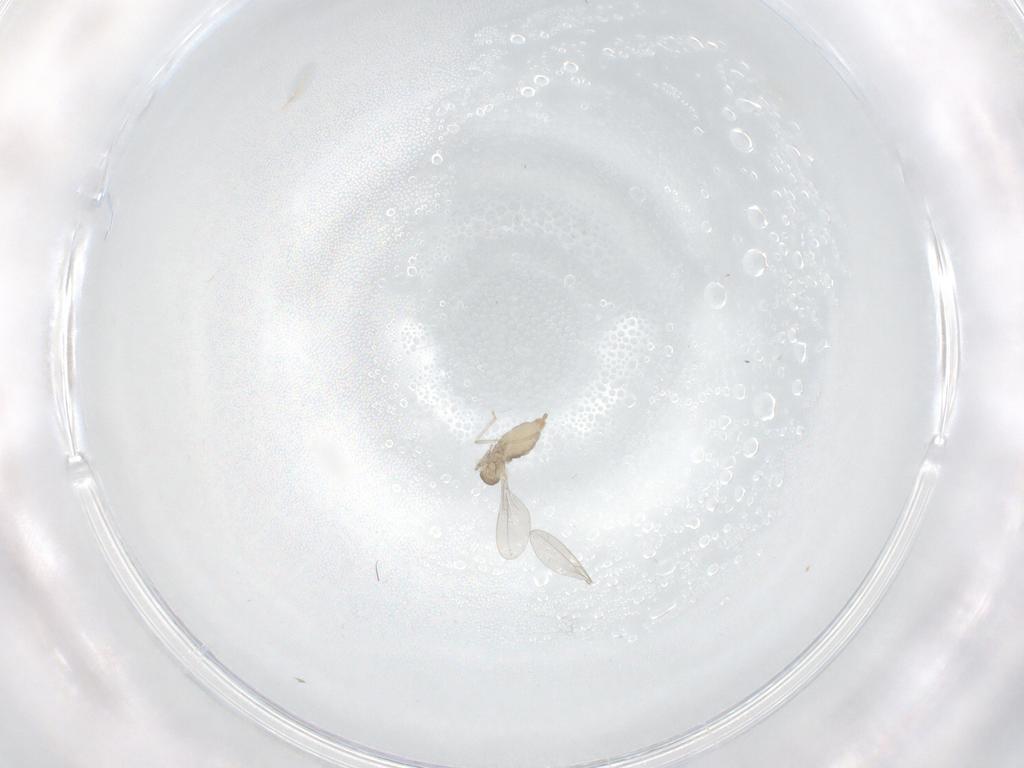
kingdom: Animalia
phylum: Arthropoda
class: Insecta
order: Diptera
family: Cecidomyiidae
